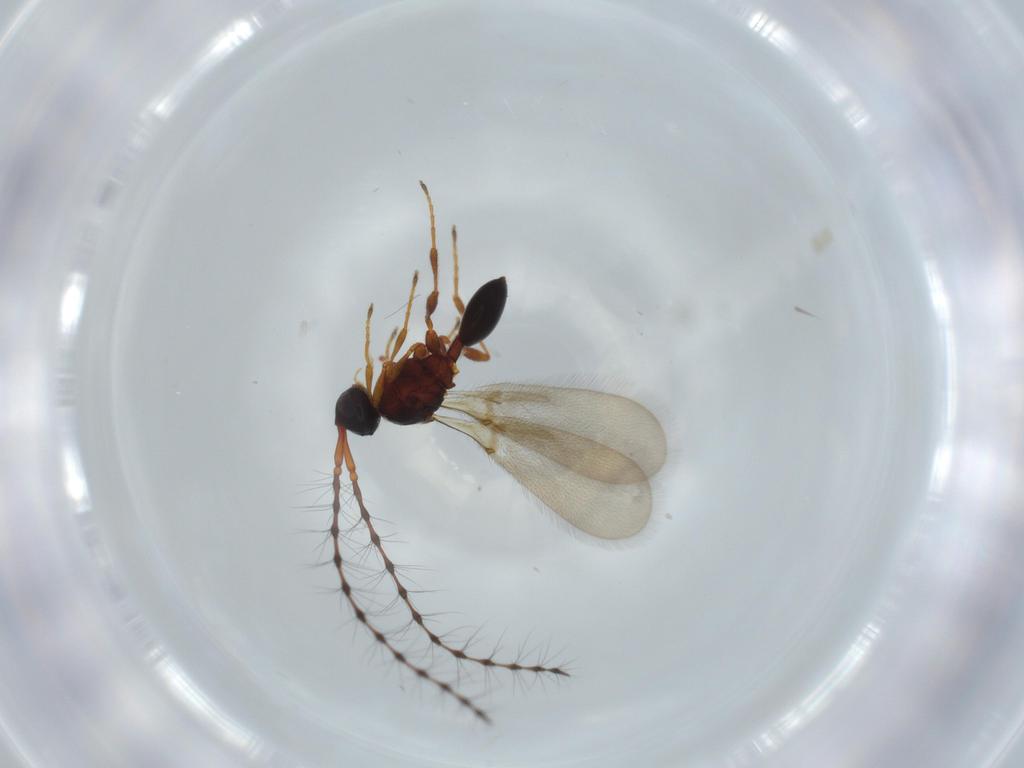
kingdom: Animalia
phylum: Arthropoda
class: Insecta
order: Hymenoptera
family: Diapriidae
